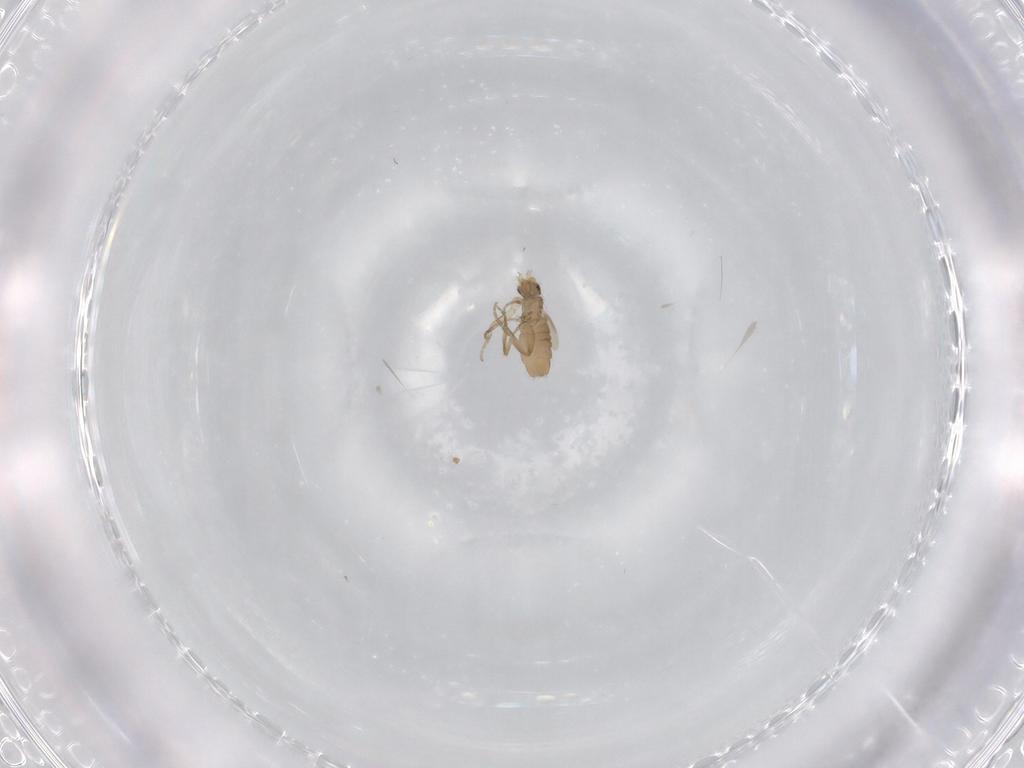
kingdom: Animalia
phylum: Arthropoda
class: Insecta
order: Diptera
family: Phoridae
